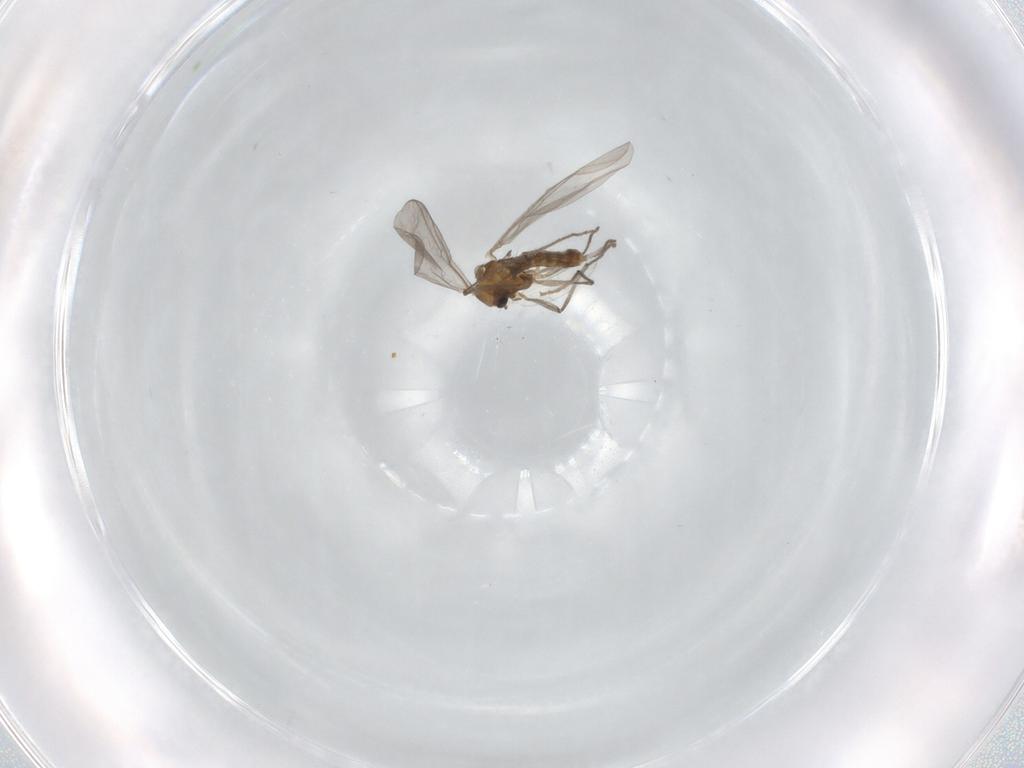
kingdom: Animalia
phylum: Arthropoda
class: Insecta
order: Diptera
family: Chironomidae
